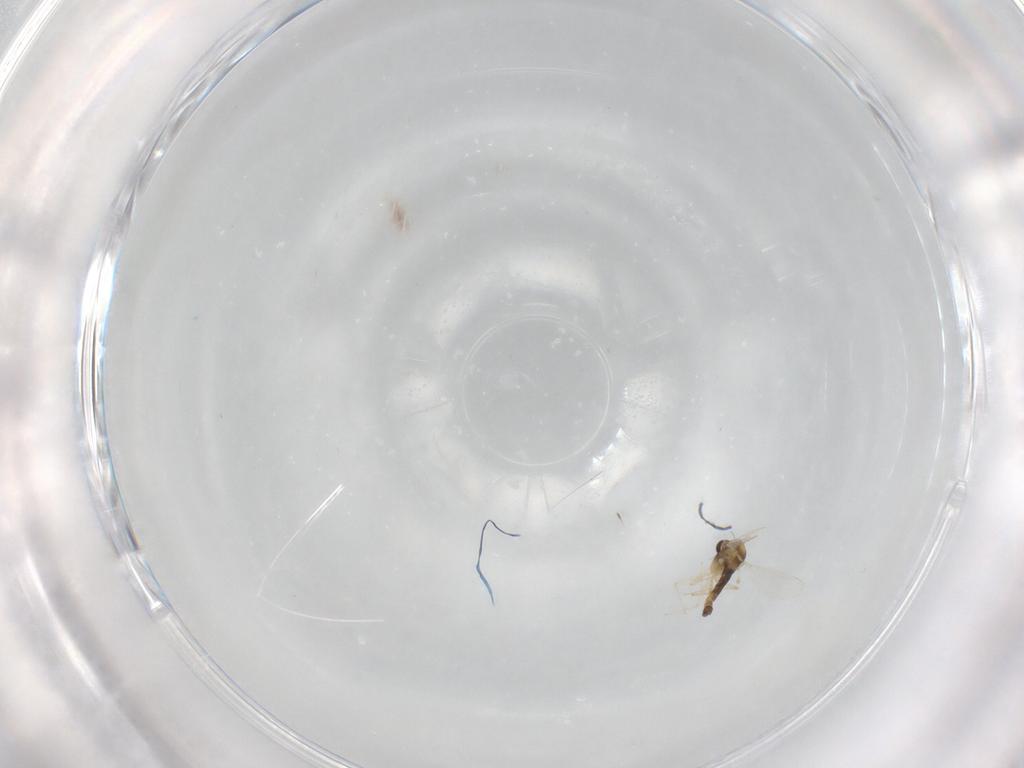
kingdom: Animalia
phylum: Arthropoda
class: Insecta
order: Diptera
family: Chironomidae
